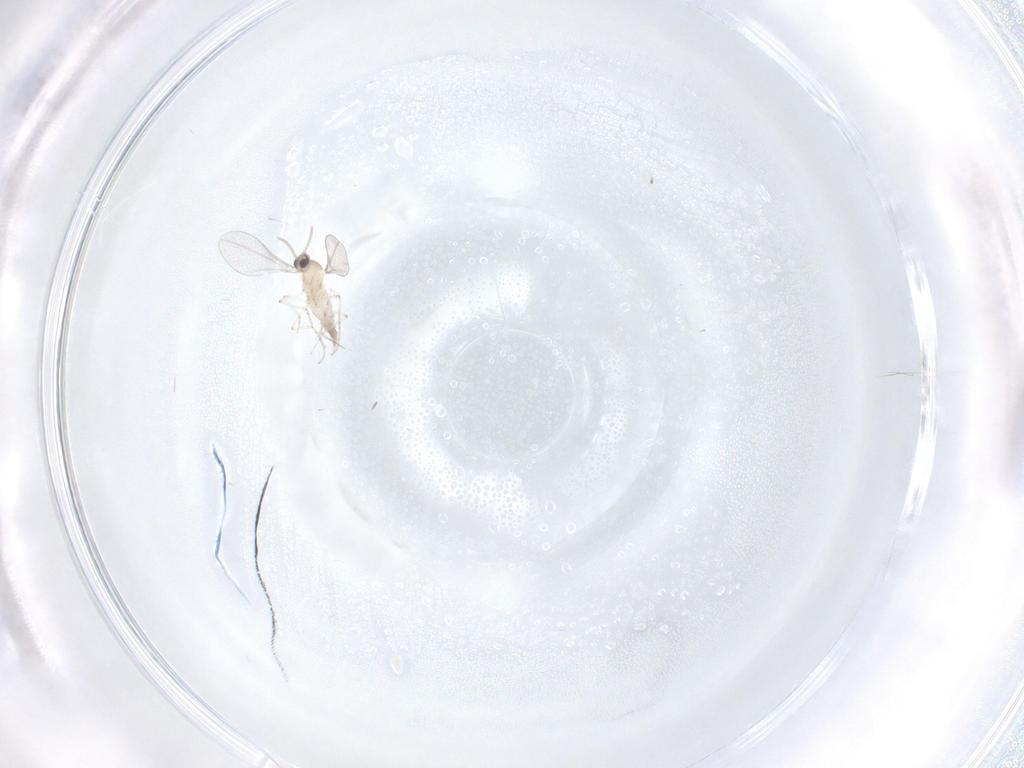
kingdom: Animalia
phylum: Arthropoda
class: Insecta
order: Diptera
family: Cecidomyiidae
